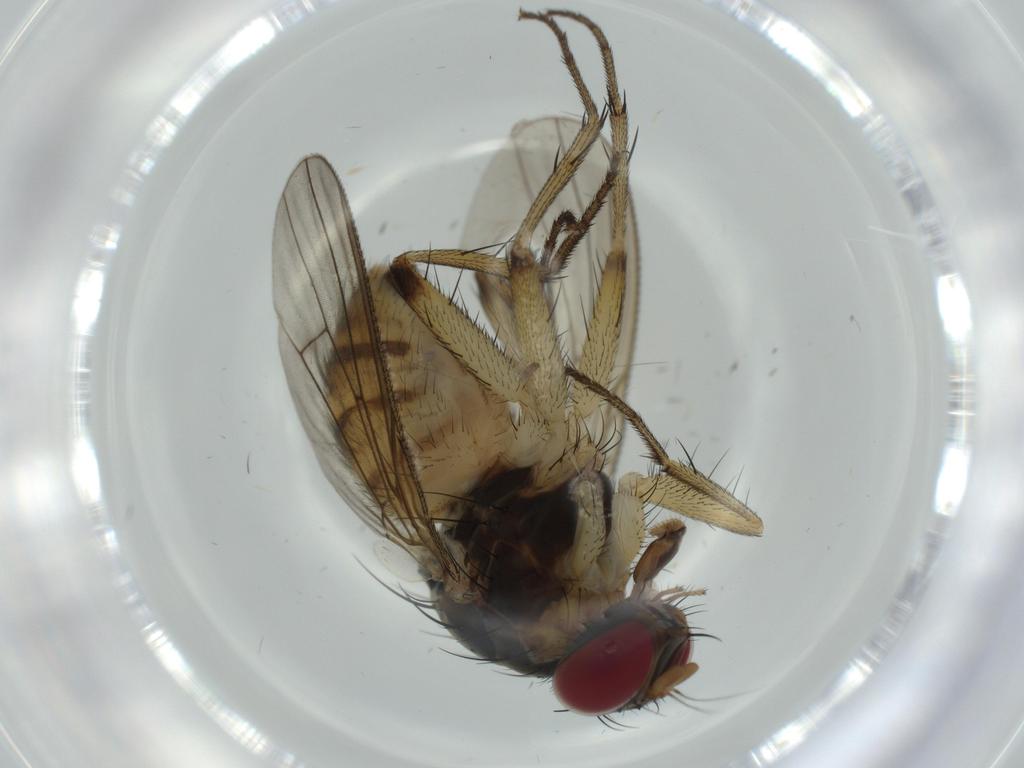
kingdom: Animalia
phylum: Arthropoda
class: Insecta
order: Diptera
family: Muscidae
